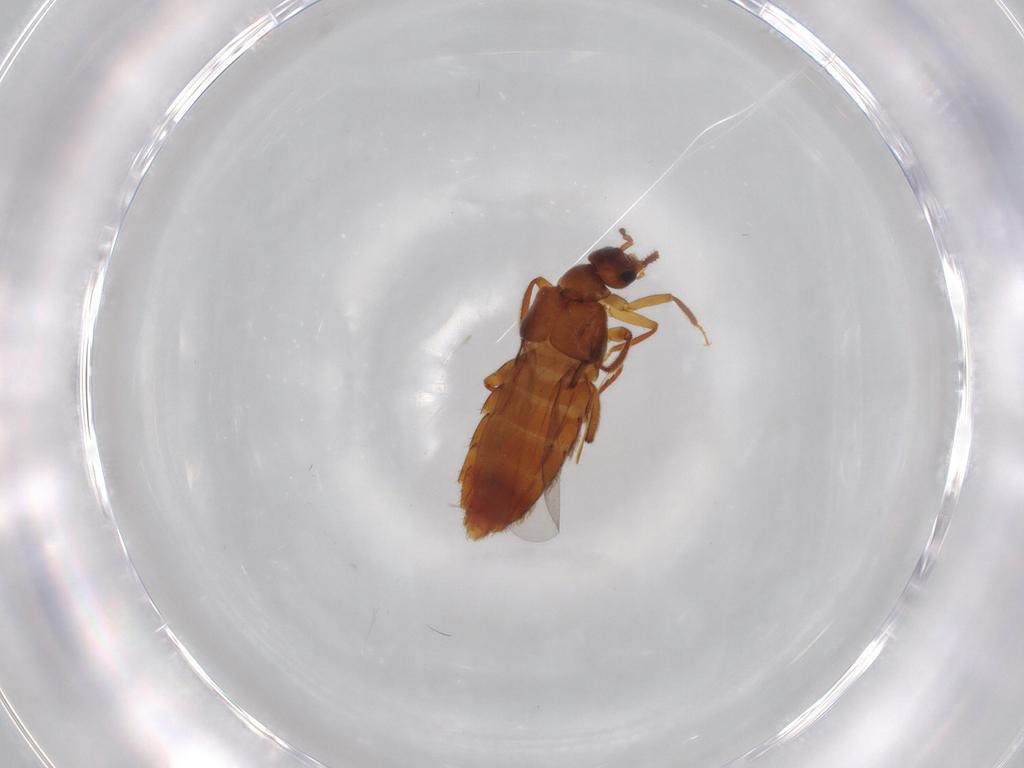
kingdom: Animalia
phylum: Arthropoda
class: Insecta
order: Coleoptera
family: Staphylinidae
